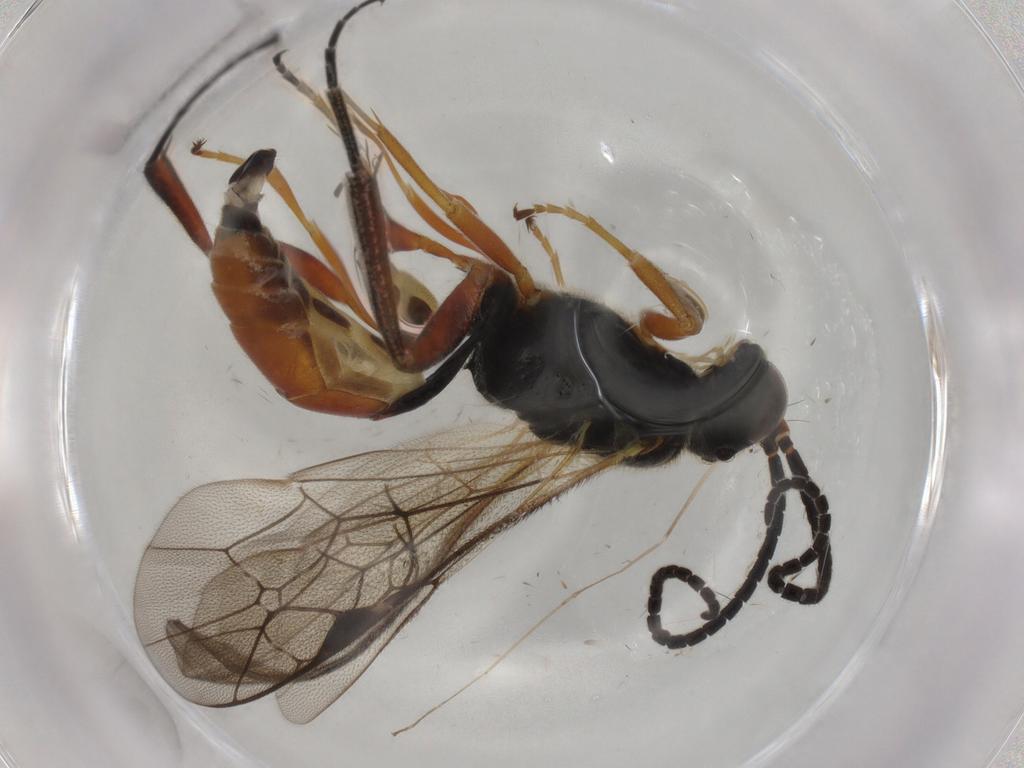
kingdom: Animalia
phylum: Arthropoda
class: Insecta
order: Hymenoptera
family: Ichneumonidae
